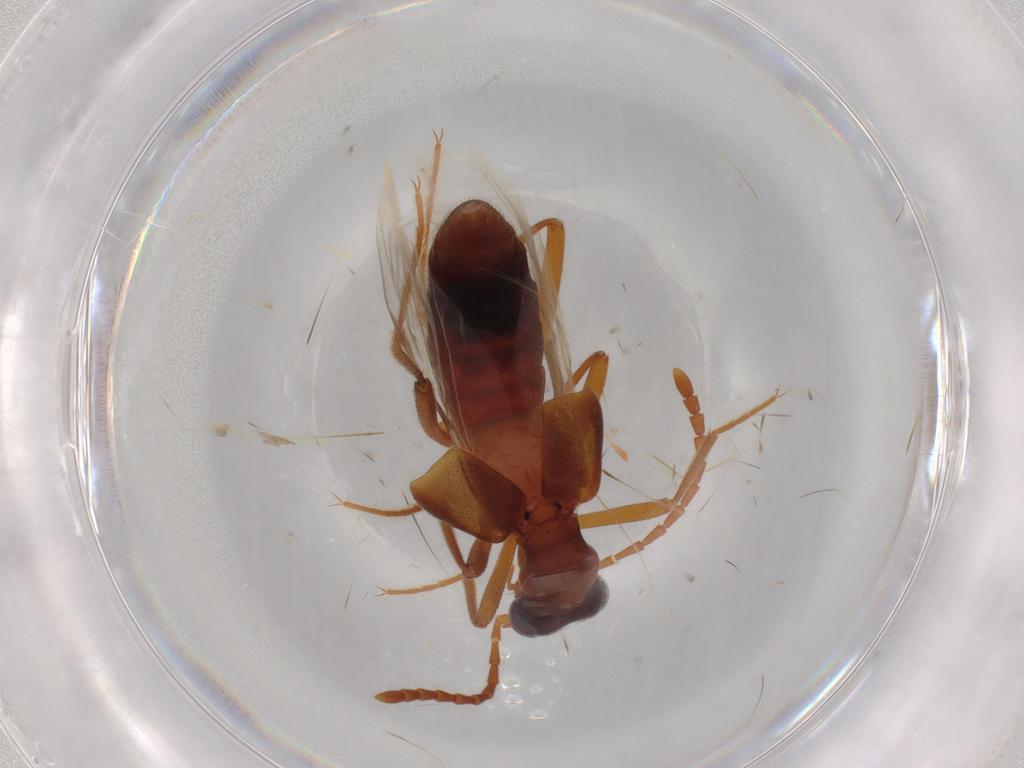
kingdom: Animalia
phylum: Arthropoda
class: Insecta
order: Coleoptera
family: Staphylinidae
